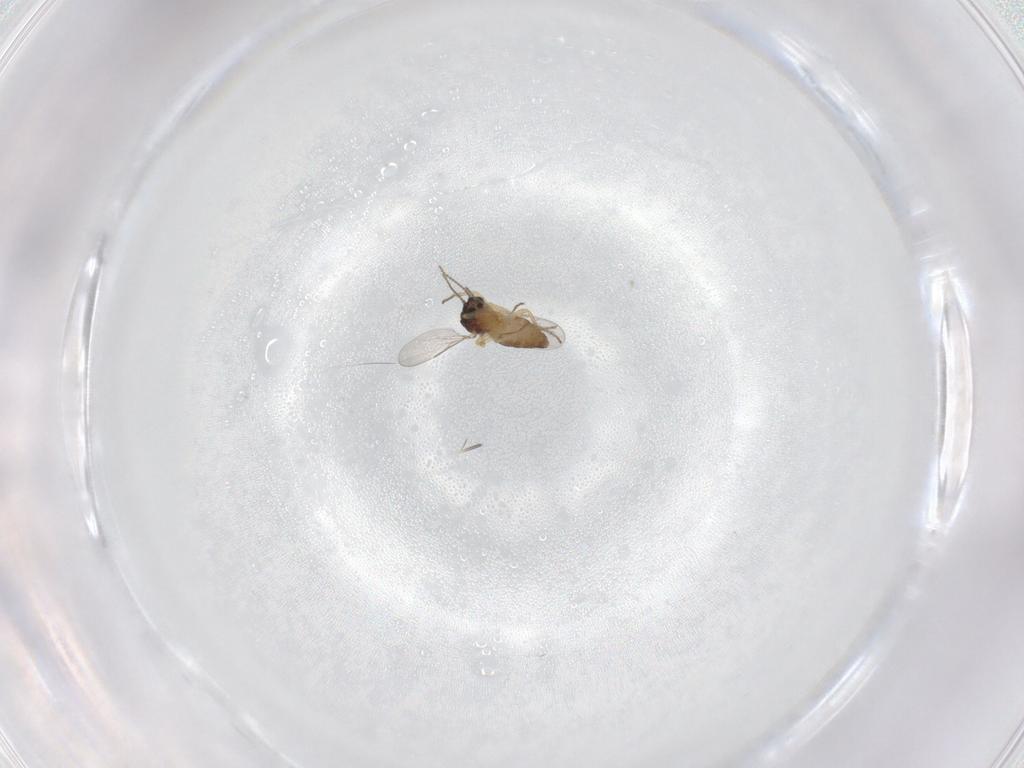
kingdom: Animalia
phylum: Arthropoda
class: Insecta
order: Diptera
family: Ceratopogonidae
